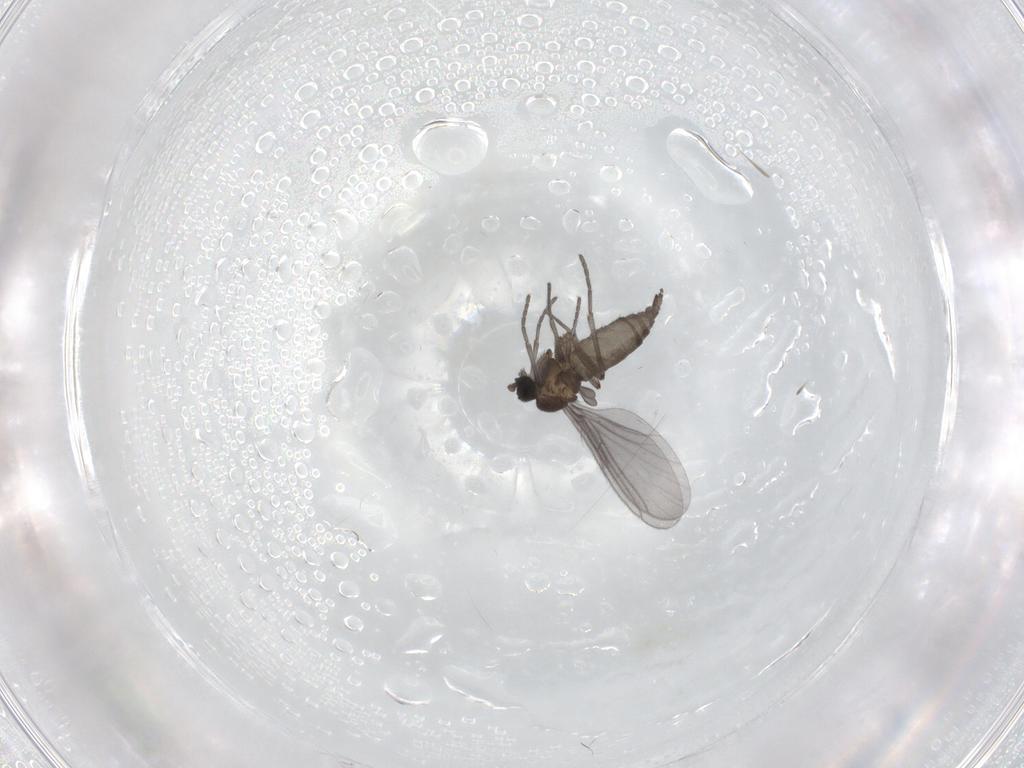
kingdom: Animalia
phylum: Arthropoda
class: Insecta
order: Diptera
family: Sciaridae
